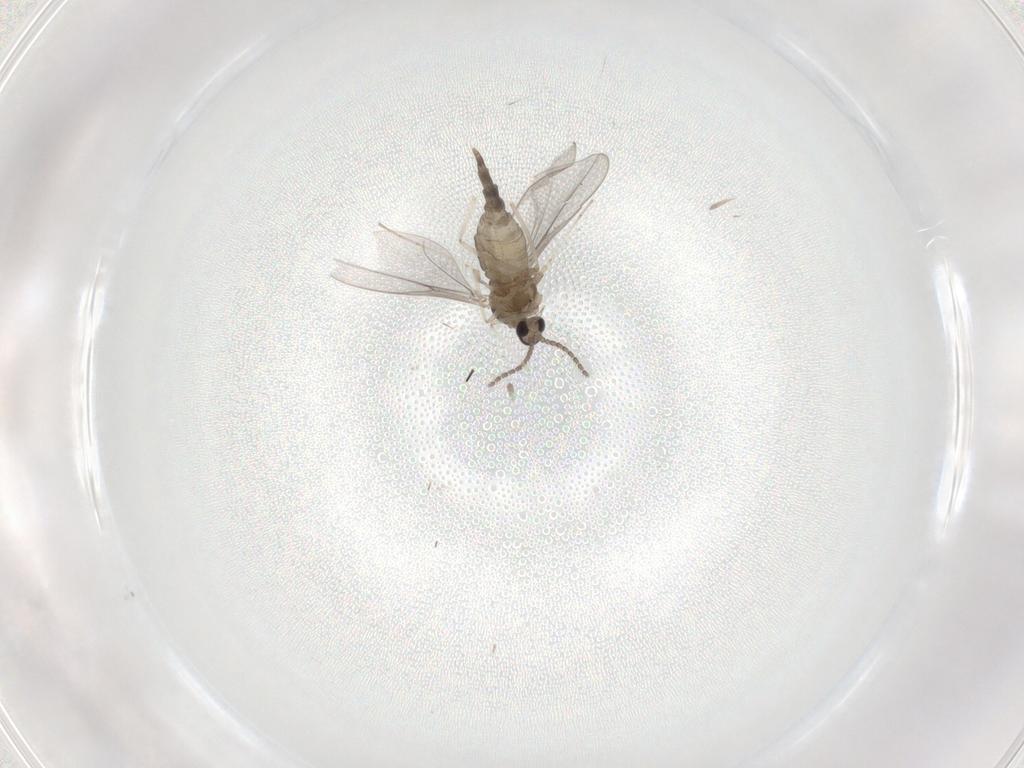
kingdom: Animalia
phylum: Arthropoda
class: Insecta
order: Diptera
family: Cecidomyiidae
